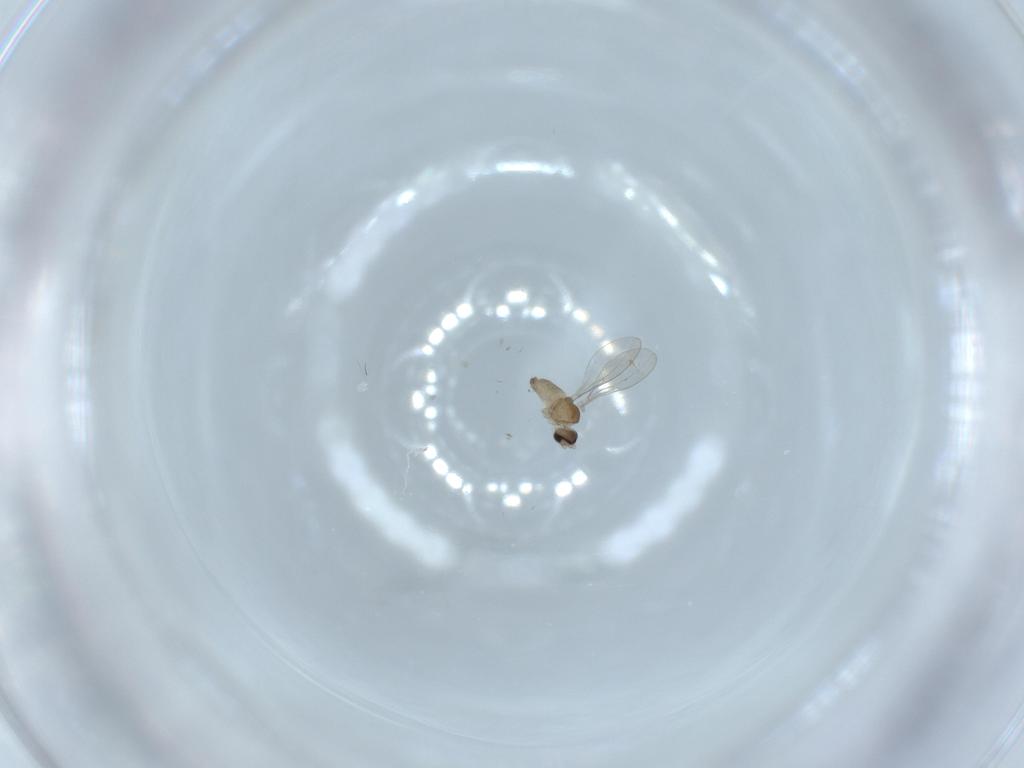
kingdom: Animalia
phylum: Arthropoda
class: Insecta
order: Diptera
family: Cecidomyiidae
